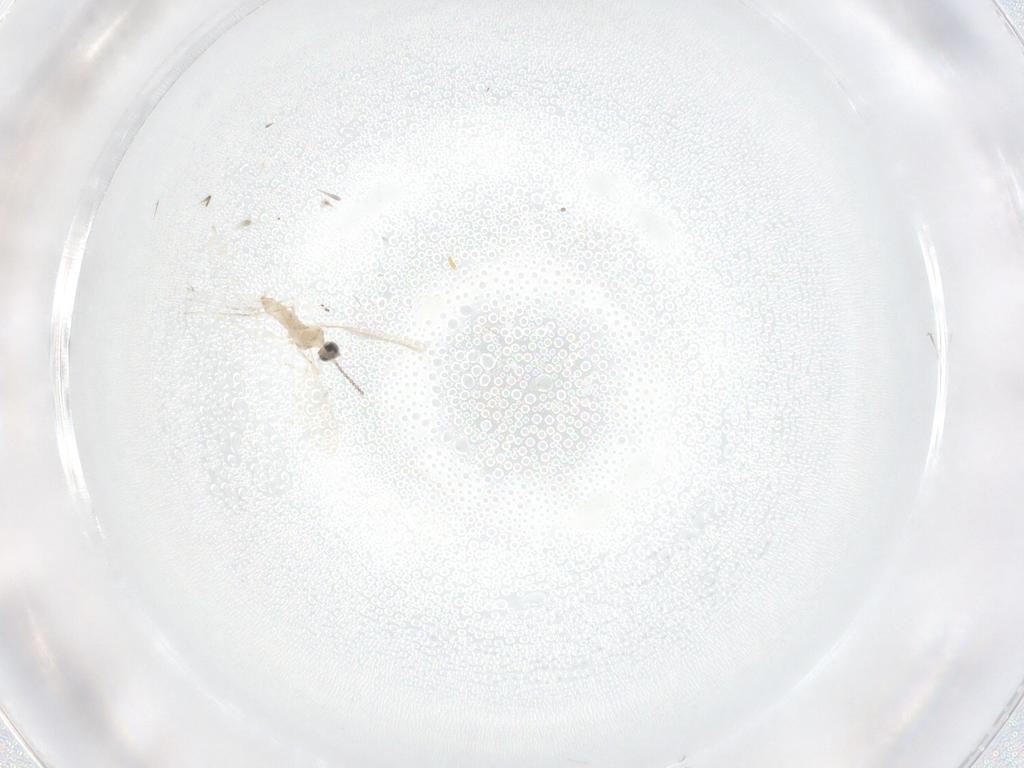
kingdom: Animalia
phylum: Arthropoda
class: Insecta
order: Diptera
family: Cecidomyiidae
